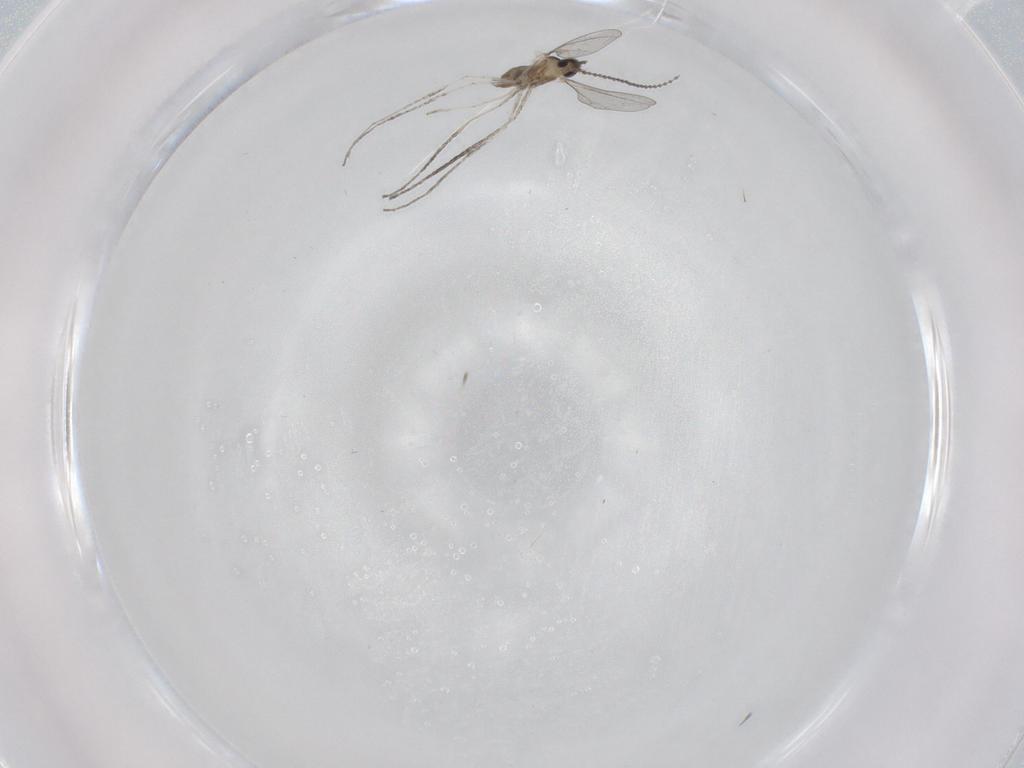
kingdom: Animalia
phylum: Arthropoda
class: Insecta
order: Diptera
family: Cecidomyiidae
